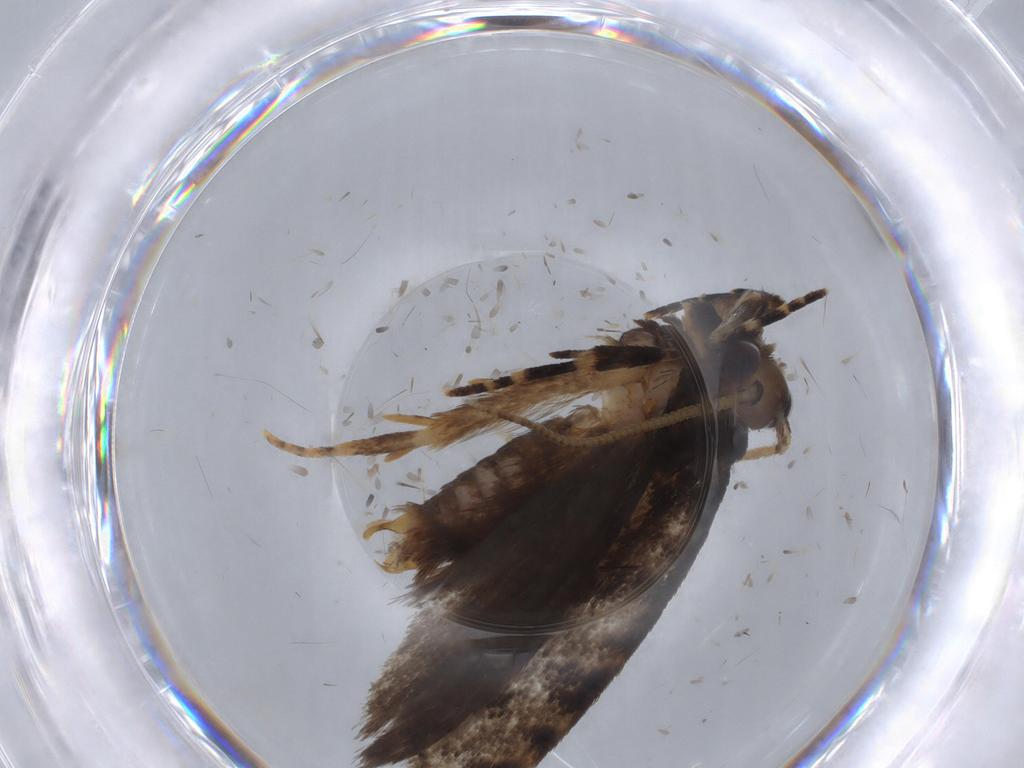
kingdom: Animalia
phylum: Arthropoda
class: Insecta
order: Lepidoptera
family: Tineidae
